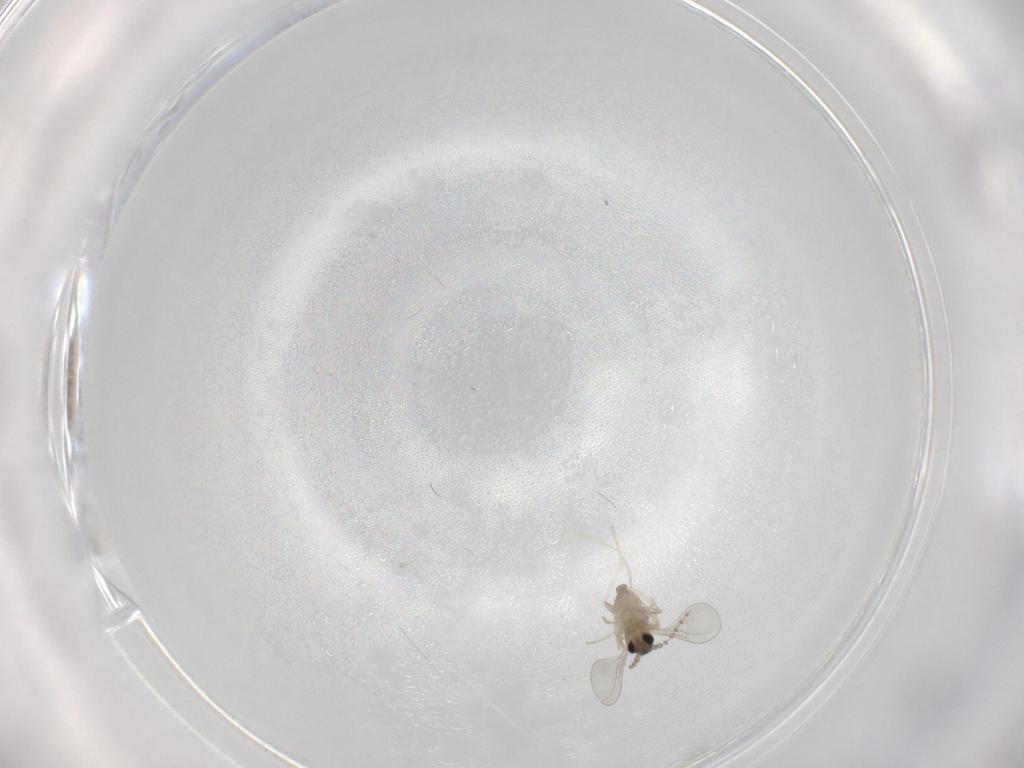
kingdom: Animalia
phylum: Arthropoda
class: Insecta
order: Diptera
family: Cecidomyiidae
